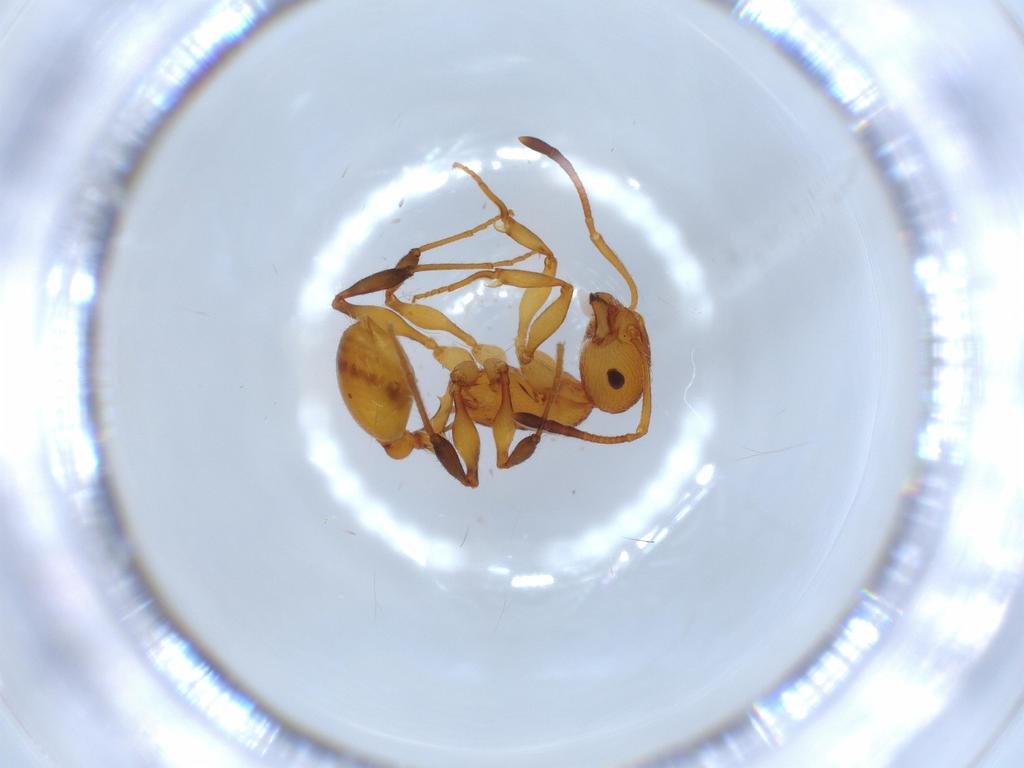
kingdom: Animalia
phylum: Arthropoda
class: Insecta
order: Hymenoptera
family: Formicidae
